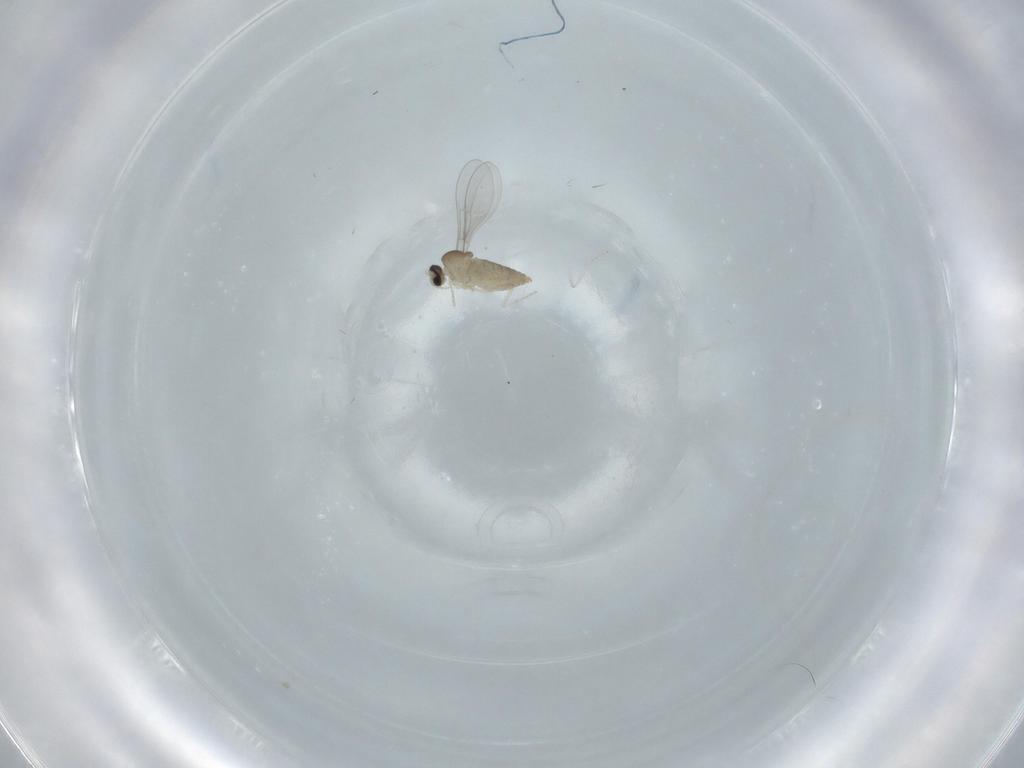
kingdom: Animalia
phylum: Arthropoda
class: Insecta
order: Diptera
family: Cecidomyiidae
